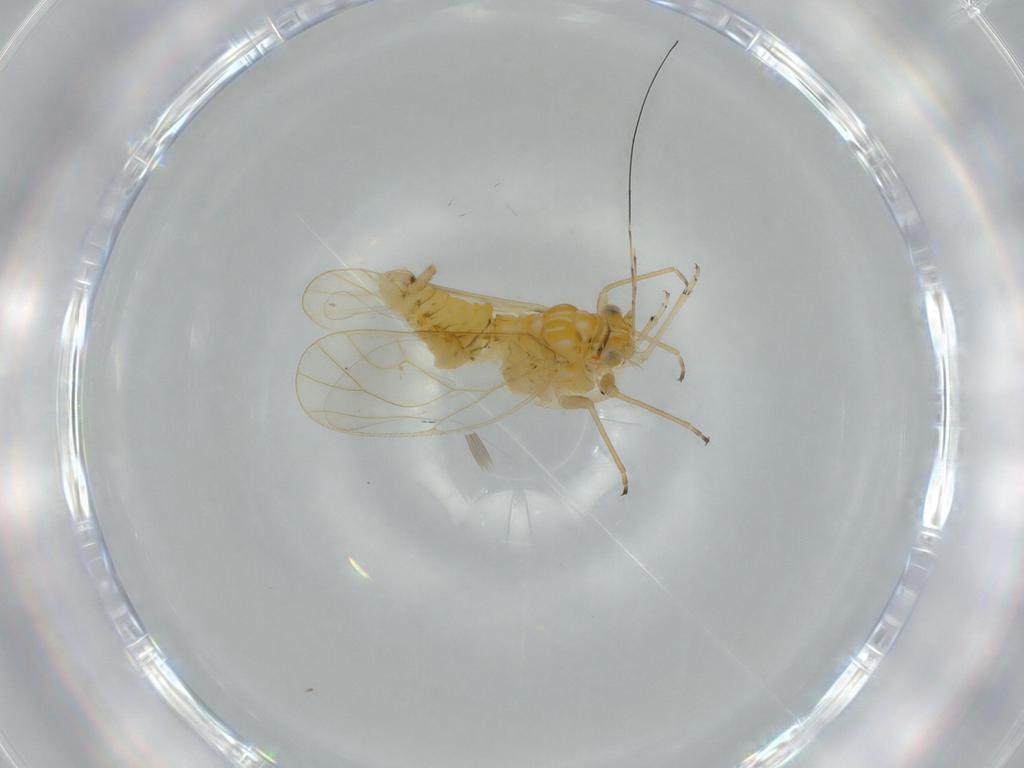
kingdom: Animalia
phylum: Arthropoda
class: Insecta
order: Hemiptera
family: Psyllidae
